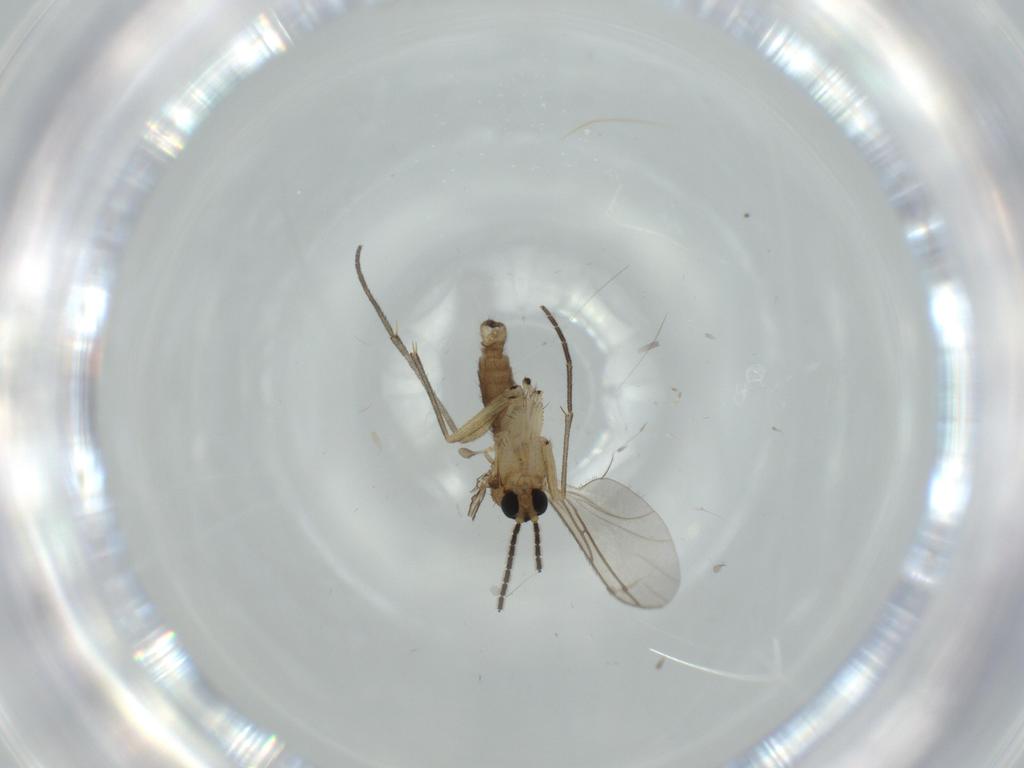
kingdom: Animalia
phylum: Arthropoda
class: Insecta
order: Diptera
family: Sciaridae
